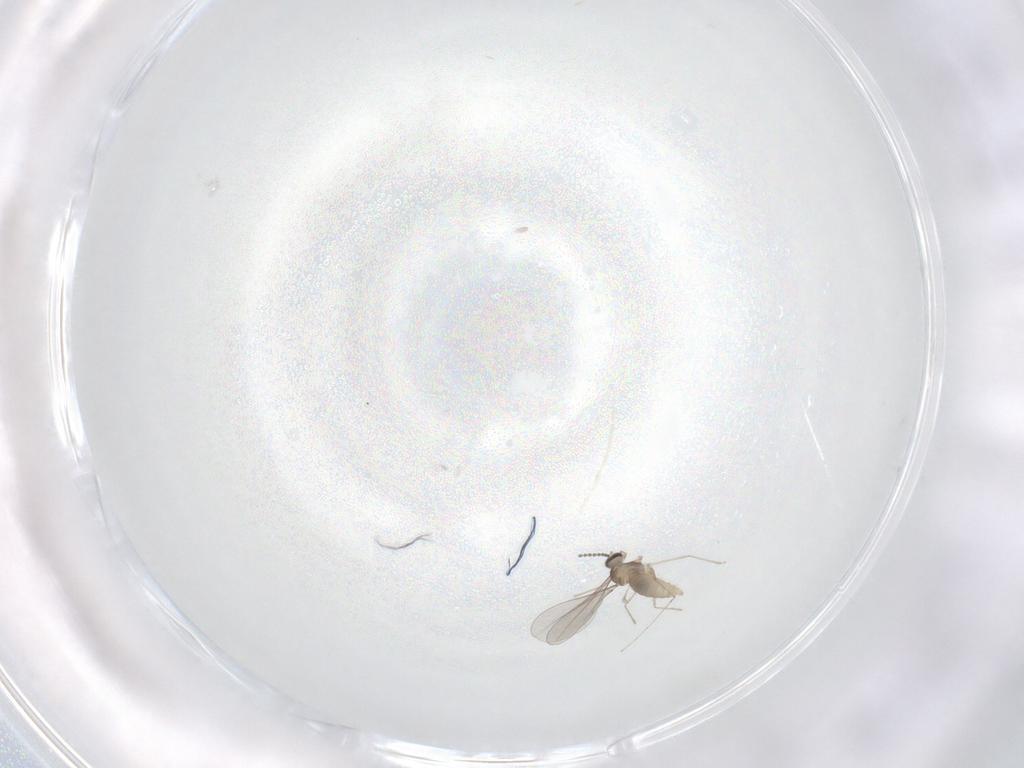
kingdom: Animalia
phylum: Arthropoda
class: Insecta
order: Diptera
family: Cecidomyiidae
